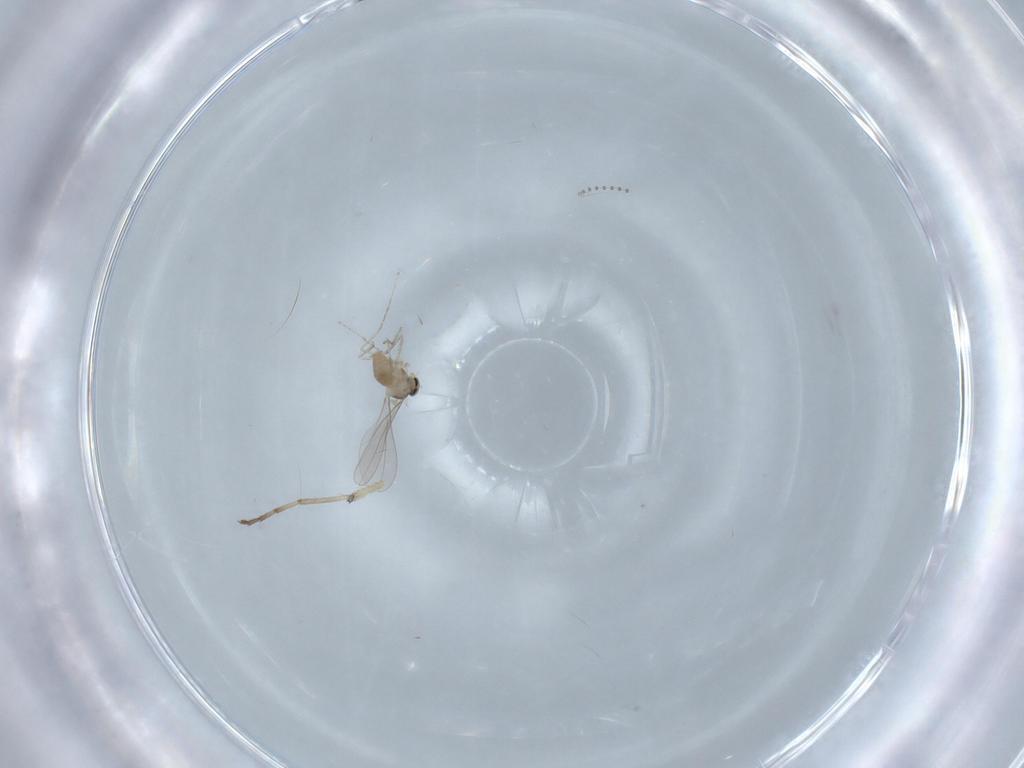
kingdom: Animalia
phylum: Arthropoda
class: Insecta
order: Diptera
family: Cecidomyiidae
